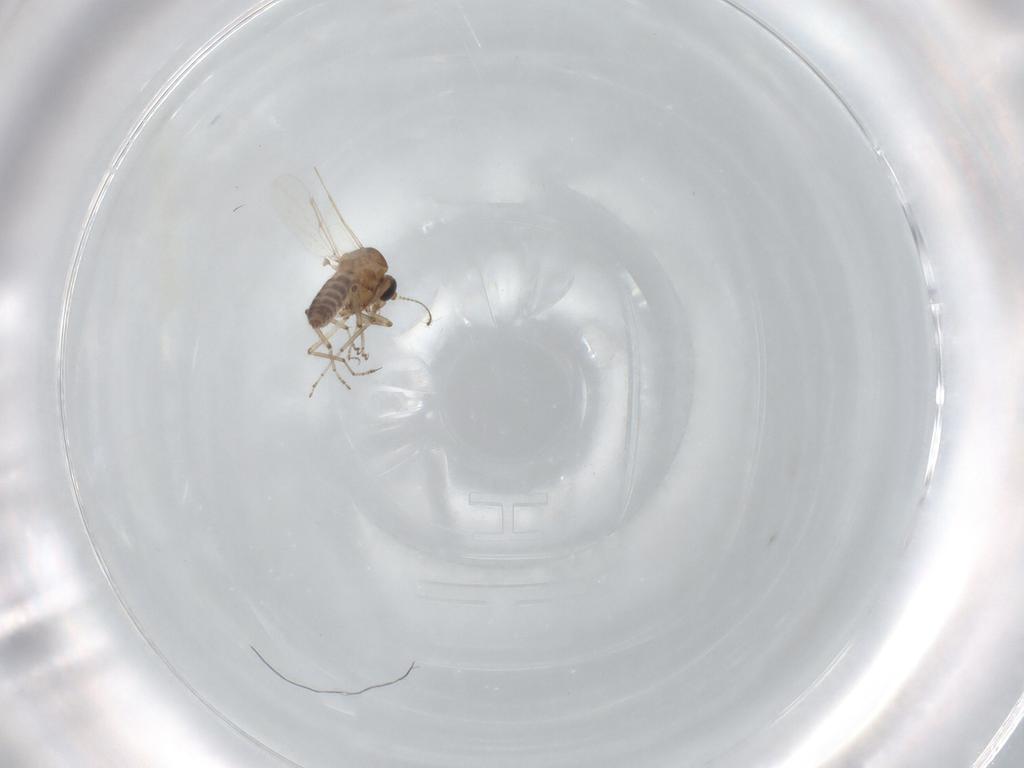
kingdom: Animalia
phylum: Arthropoda
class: Insecta
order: Diptera
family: Ceratopogonidae
